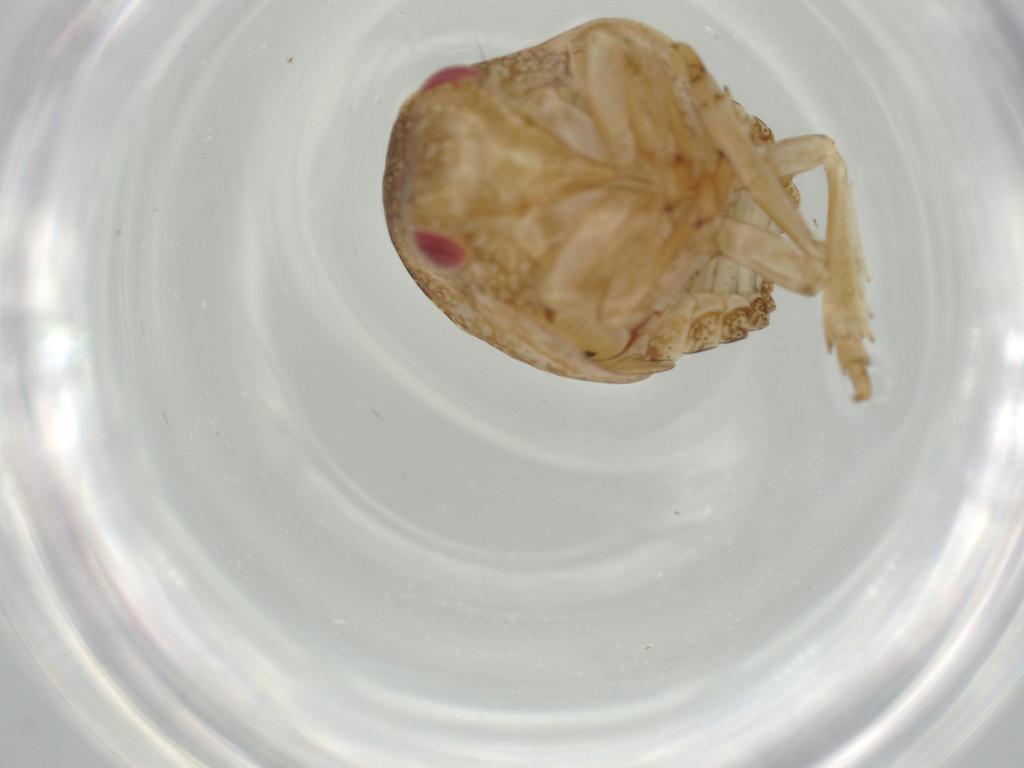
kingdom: Animalia
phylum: Arthropoda
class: Insecta
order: Hemiptera
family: Acanaloniidae
